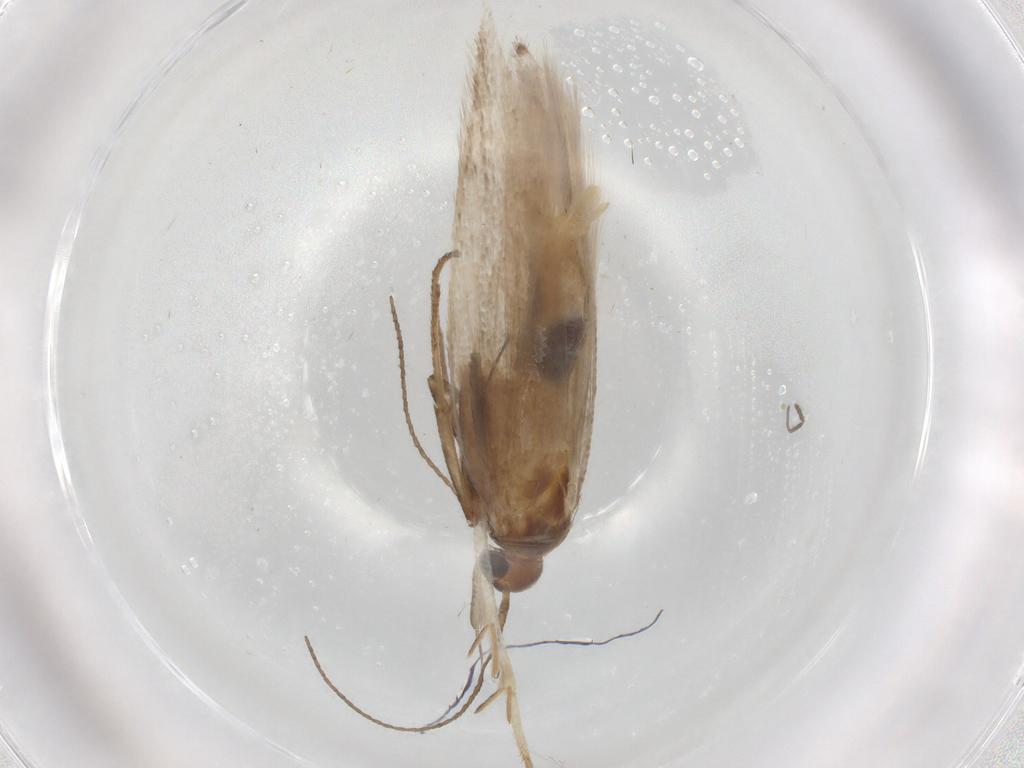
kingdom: Animalia
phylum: Arthropoda
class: Insecta
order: Lepidoptera
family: Gelechiidae
